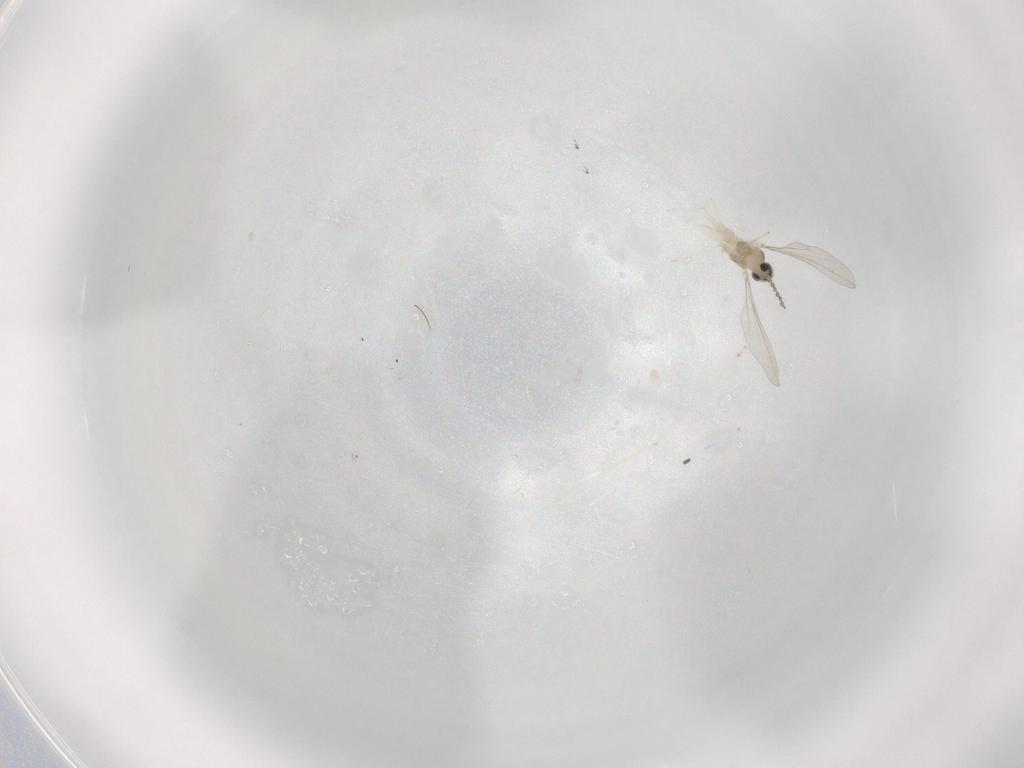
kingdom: Animalia
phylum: Arthropoda
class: Insecta
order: Diptera
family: Cecidomyiidae
